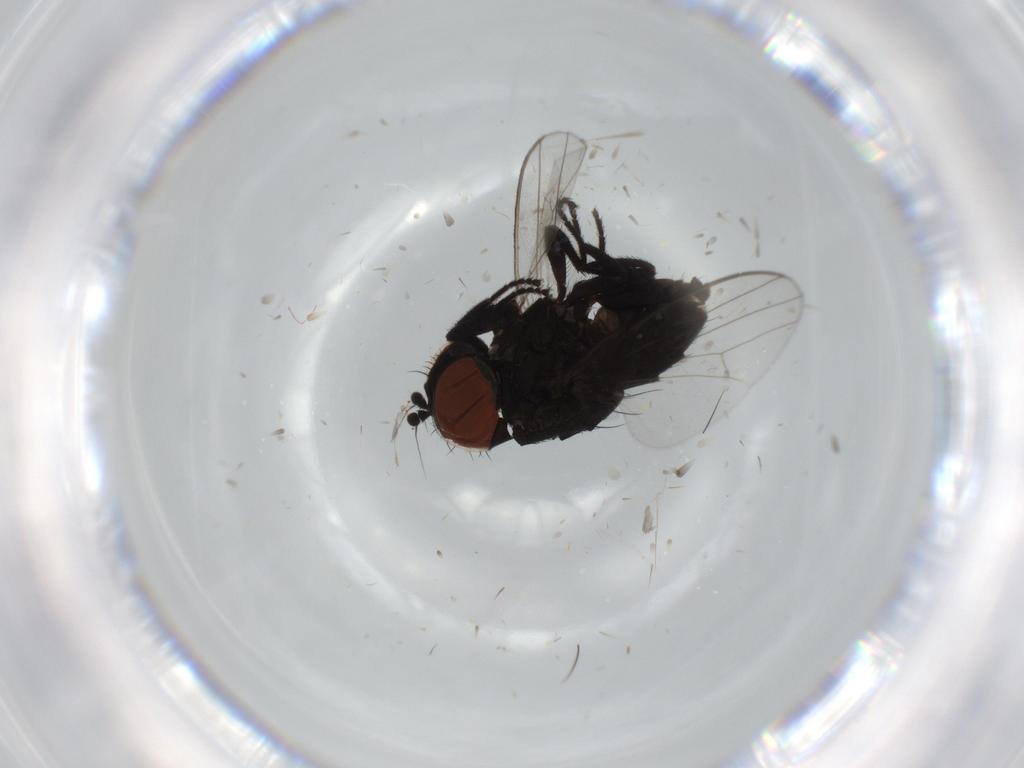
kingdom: Animalia
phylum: Arthropoda
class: Insecta
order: Diptera
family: Milichiidae
